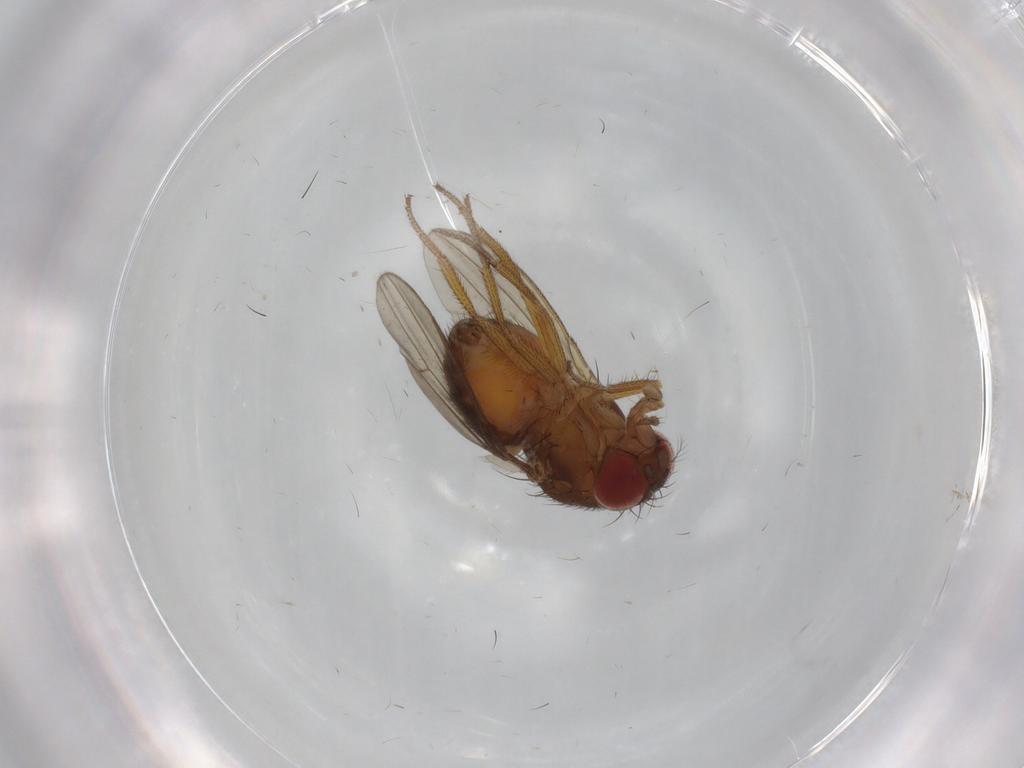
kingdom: Animalia
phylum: Arthropoda
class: Insecta
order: Diptera
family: Drosophilidae
